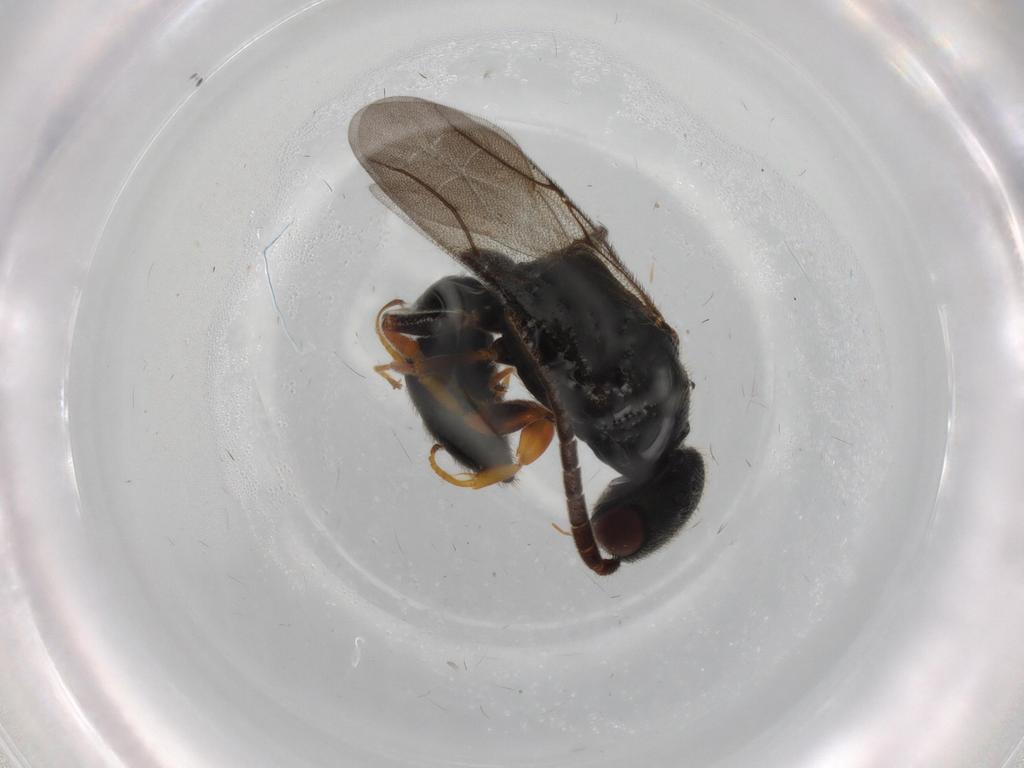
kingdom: Animalia
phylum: Arthropoda
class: Insecta
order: Hymenoptera
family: Bethylidae
